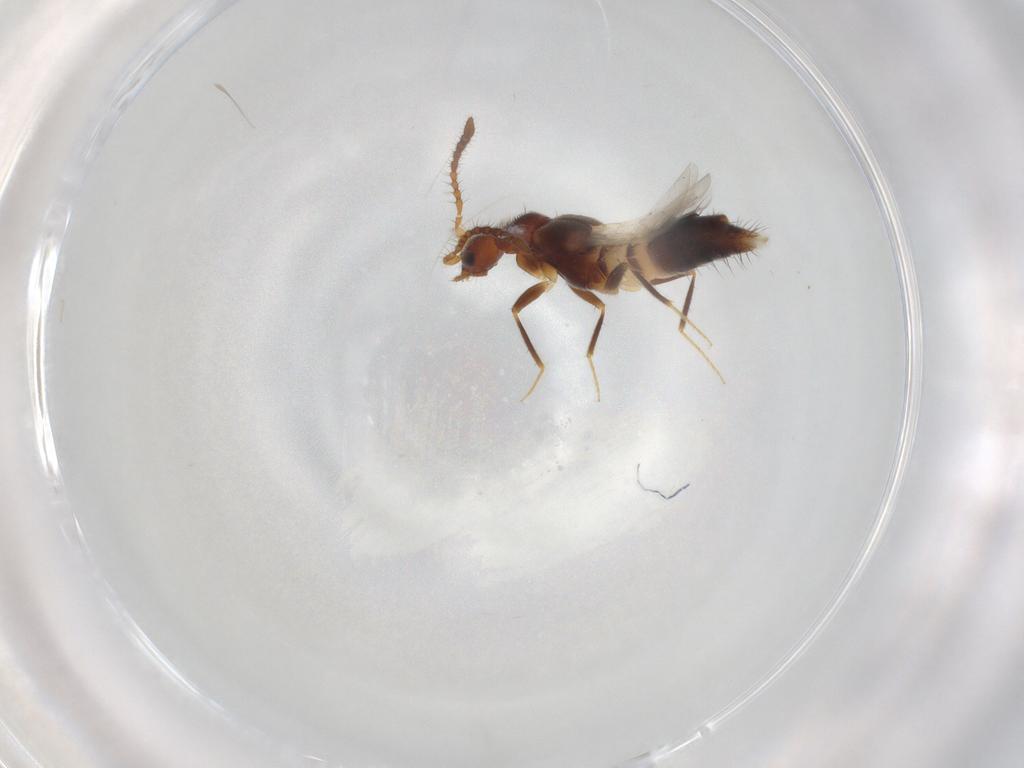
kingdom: Animalia
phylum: Arthropoda
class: Insecta
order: Coleoptera
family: Staphylinidae
